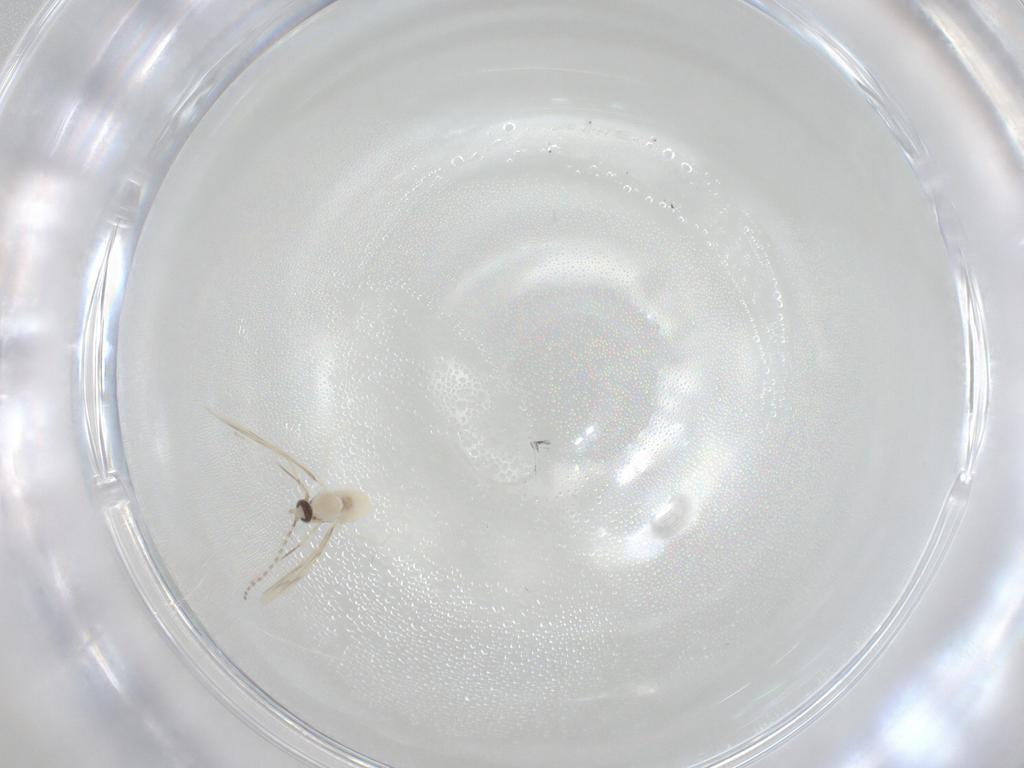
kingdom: Animalia
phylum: Arthropoda
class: Insecta
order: Diptera
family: Cecidomyiidae
